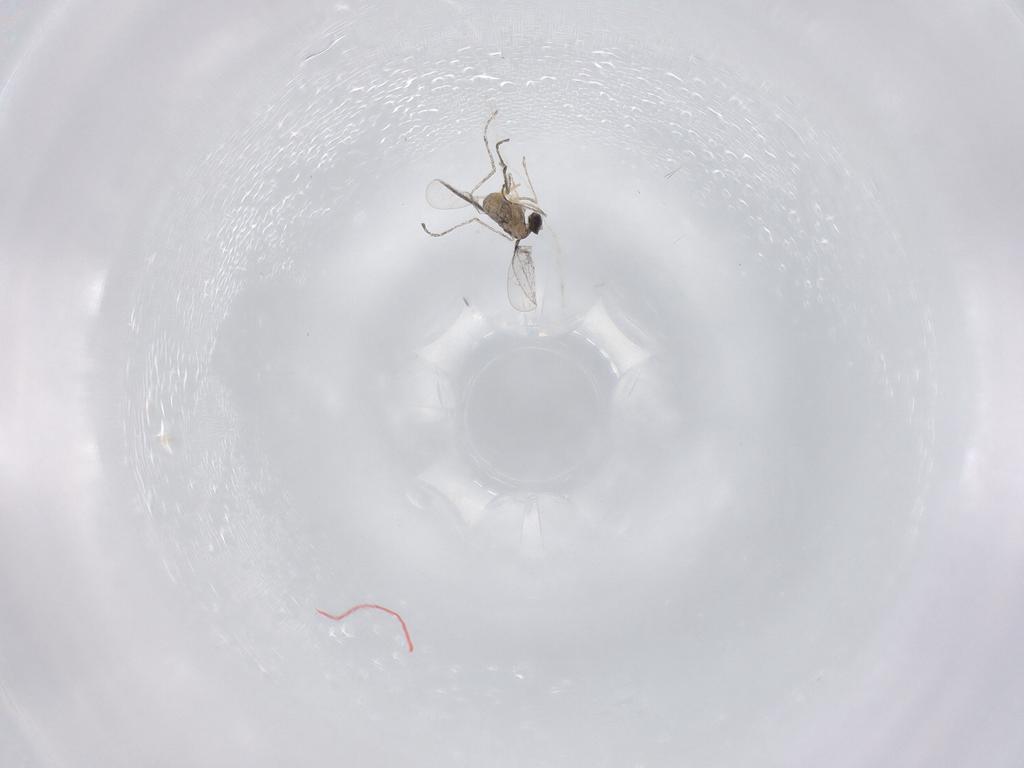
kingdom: Animalia
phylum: Arthropoda
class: Insecta
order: Diptera
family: Cecidomyiidae
